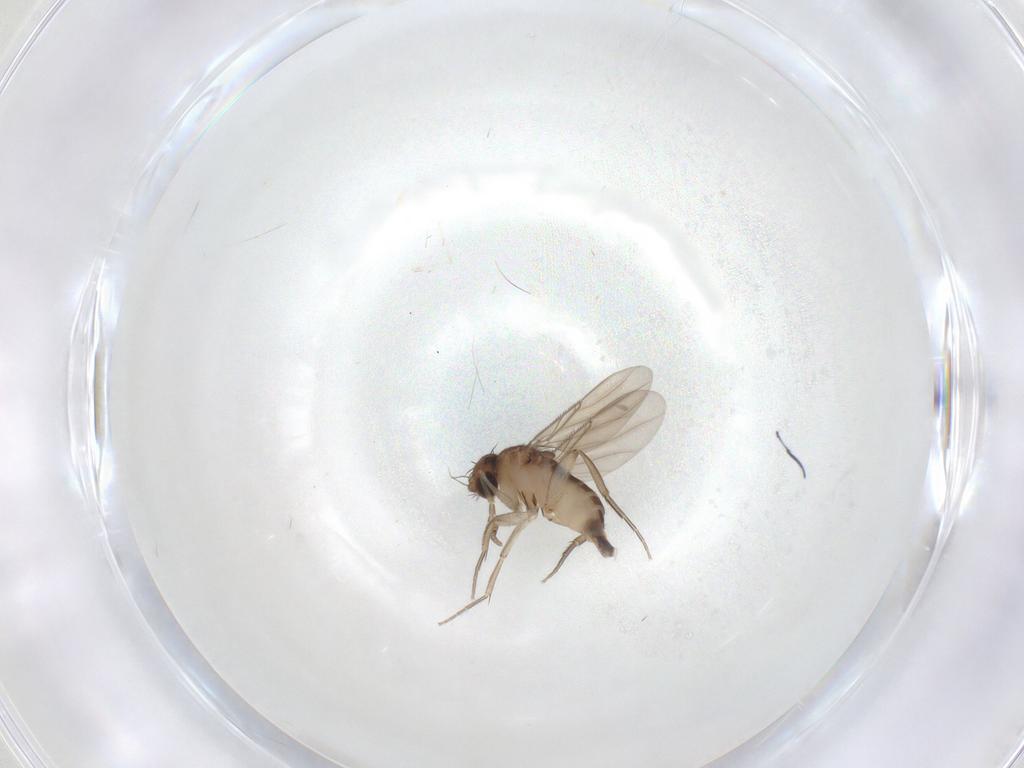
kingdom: Animalia
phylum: Arthropoda
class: Insecta
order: Diptera
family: Phoridae
